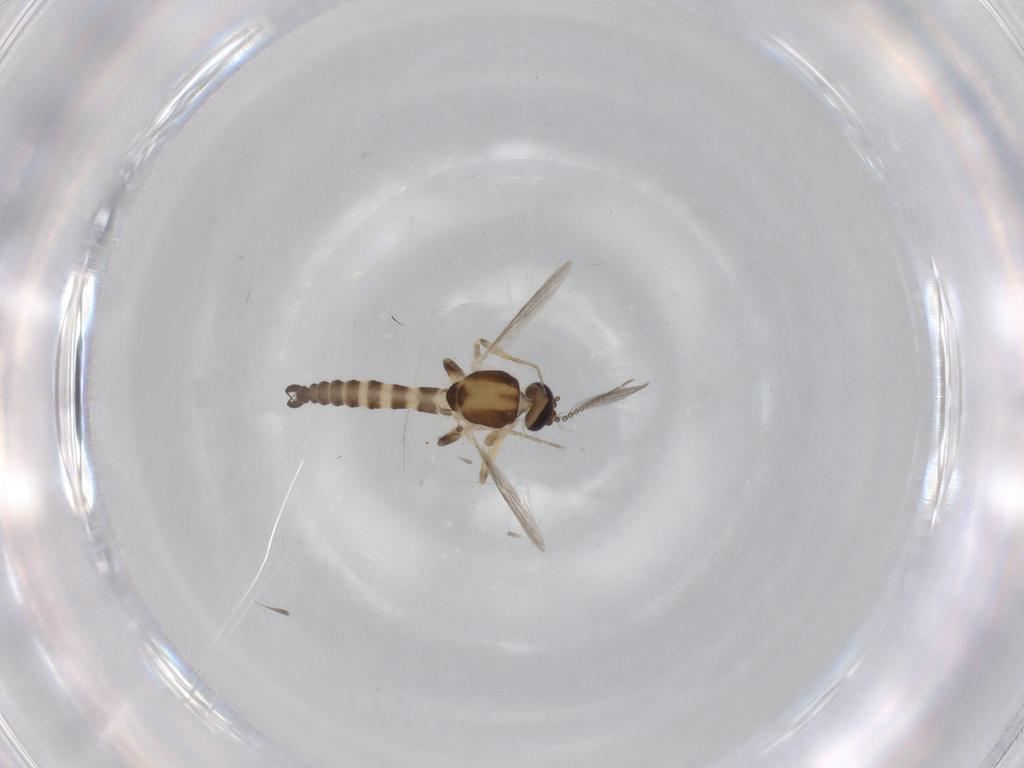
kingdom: Animalia
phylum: Arthropoda
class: Insecta
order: Diptera
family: Ceratopogonidae
